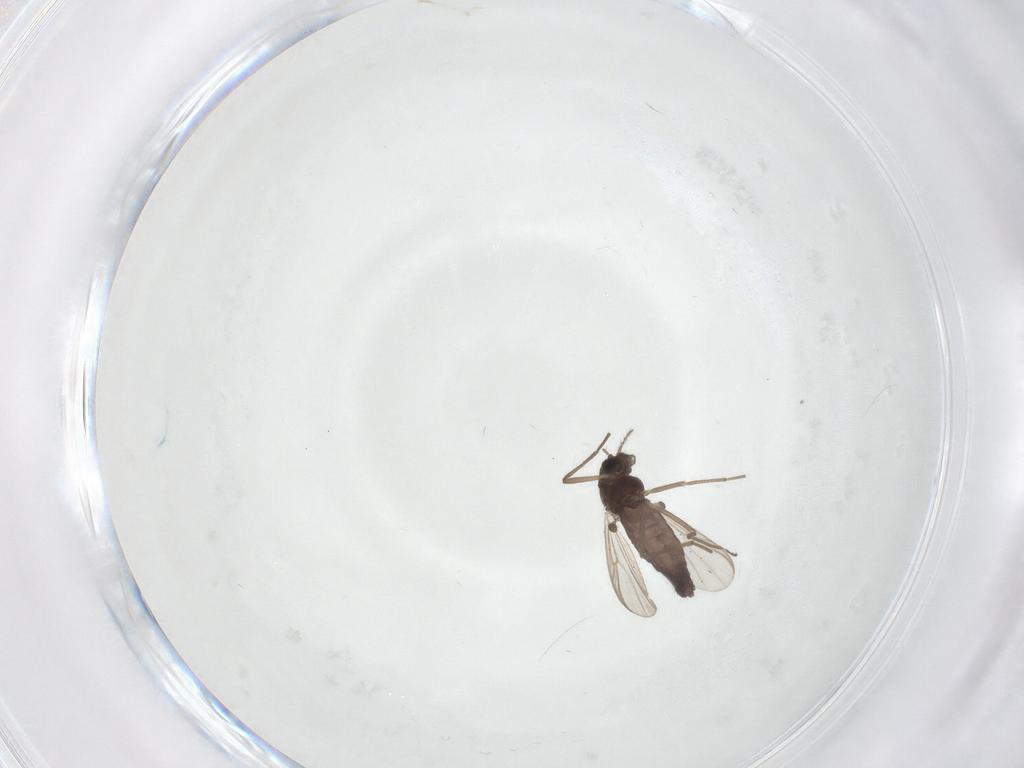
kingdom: Animalia
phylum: Arthropoda
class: Insecta
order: Diptera
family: Chironomidae
